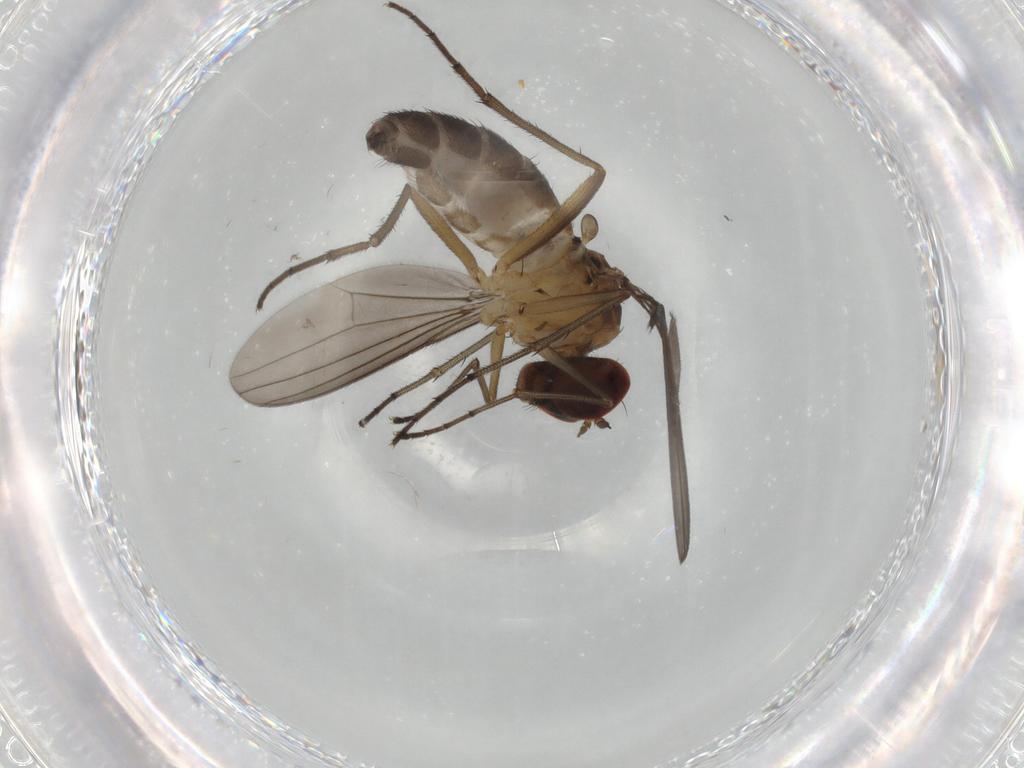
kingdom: Animalia
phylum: Arthropoda
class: Insecta
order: Diptera
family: Dolichopodidae
